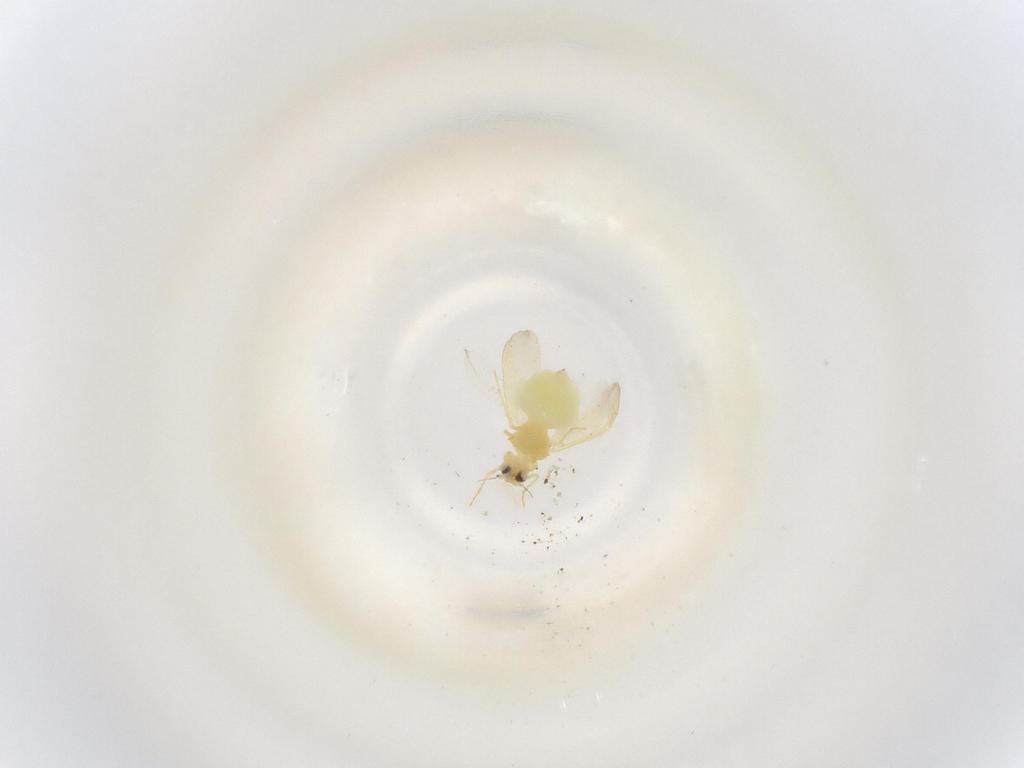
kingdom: Animalia
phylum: Arthropoda
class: Insecta
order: Hemiptera
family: Aleyrodidae
